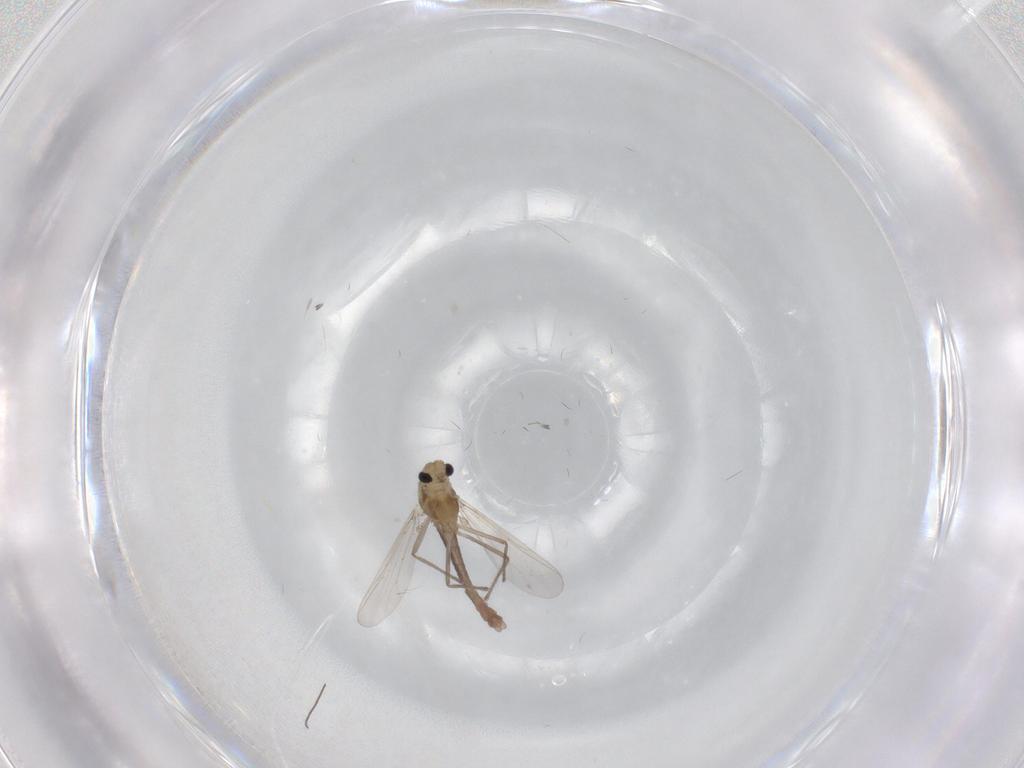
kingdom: Animalia
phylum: Arthropoda
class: Insecta
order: Diptera
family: Chironomidae
